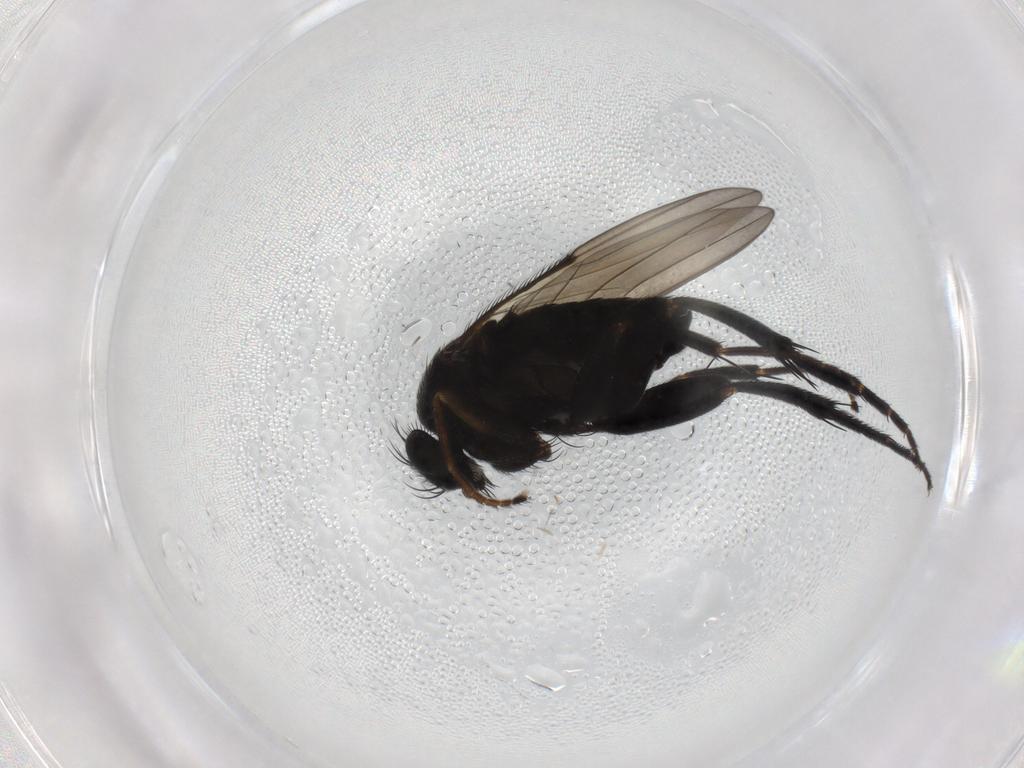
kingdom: Animalia
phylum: Arthropoda
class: Insecta
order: Diptera
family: Phoridae
